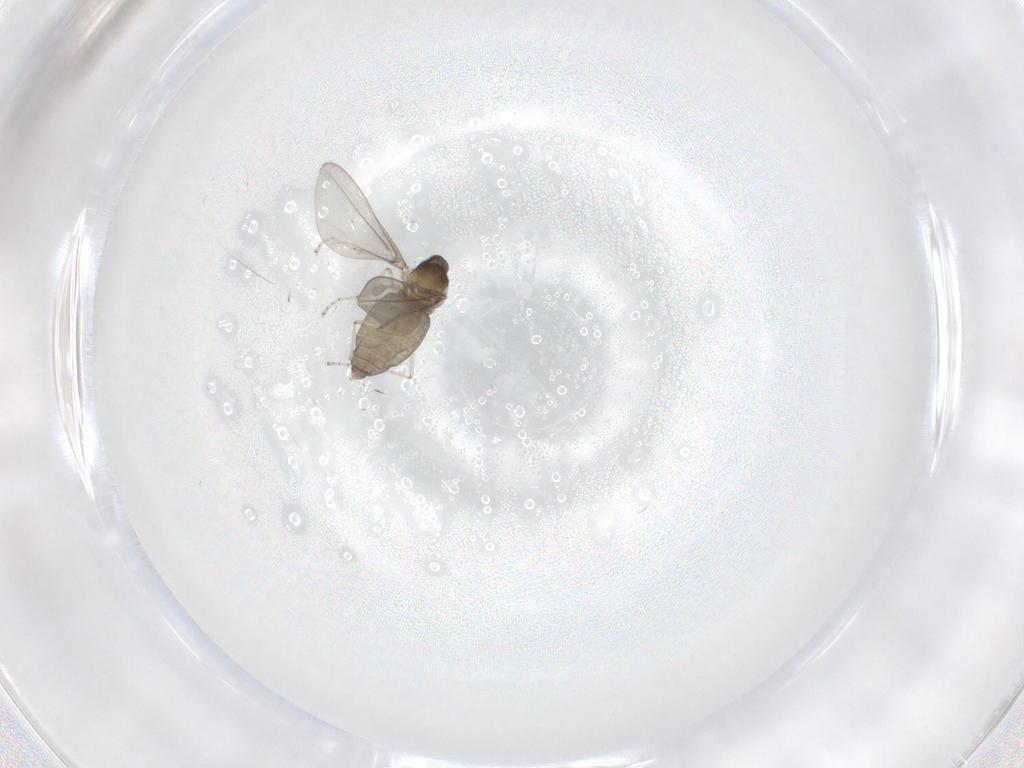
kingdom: Animalia
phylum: Arthropoda
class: Insecta
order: Diptera
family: Cecidomyiidae
